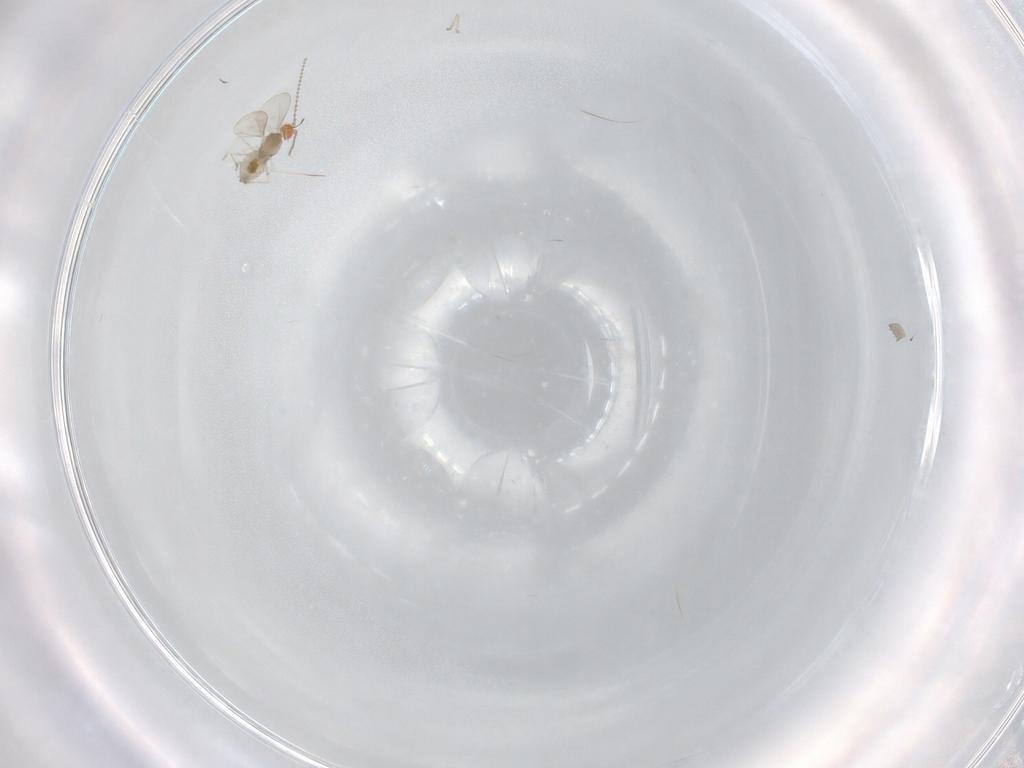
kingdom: Animalia
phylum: Arthropoda
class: Insecta
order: Diptera
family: Cecidomyiidae
